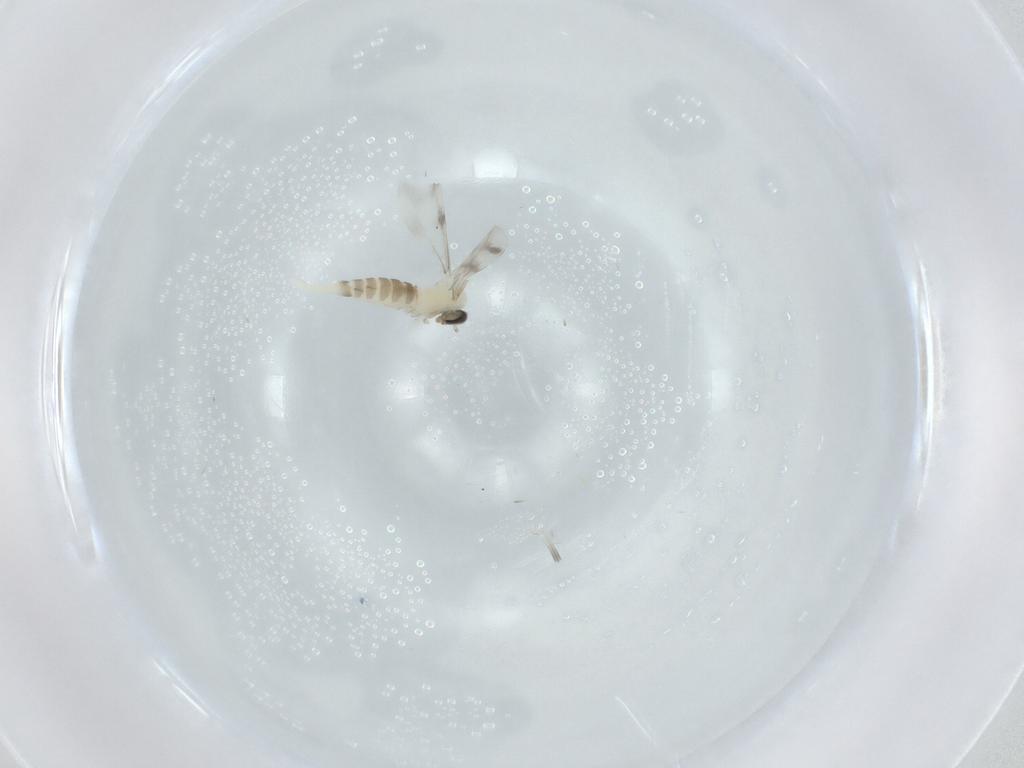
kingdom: Animalia
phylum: Arthropoda
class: Insecta
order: Diptera
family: Cecidomyiidae
